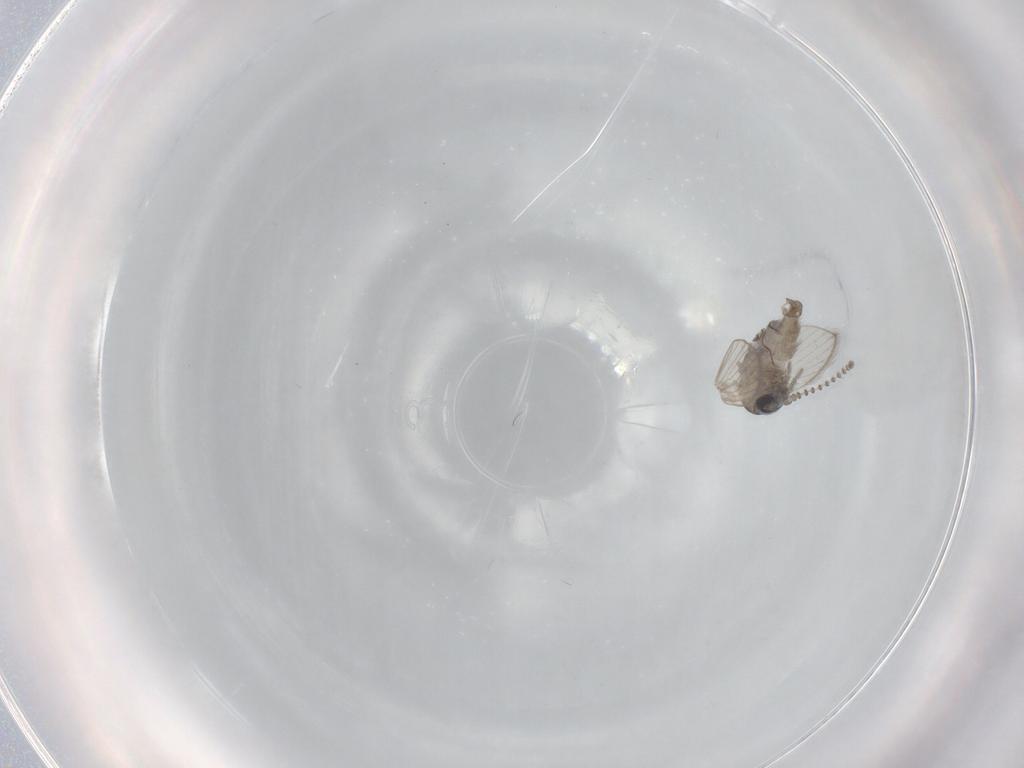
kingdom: Animalia
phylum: Arthropoda
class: Insecta
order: Diptera
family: Psychodidae
